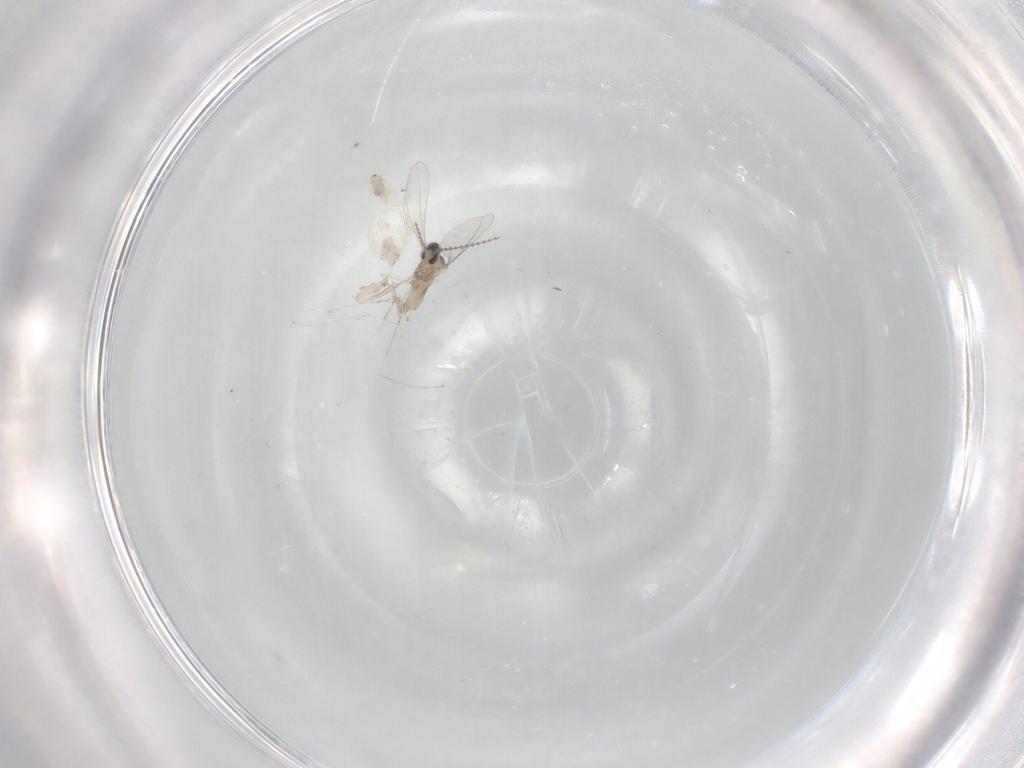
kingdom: Animalia
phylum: Arthropoda
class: Insecta
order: Diptera
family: Cecidomyiidae
